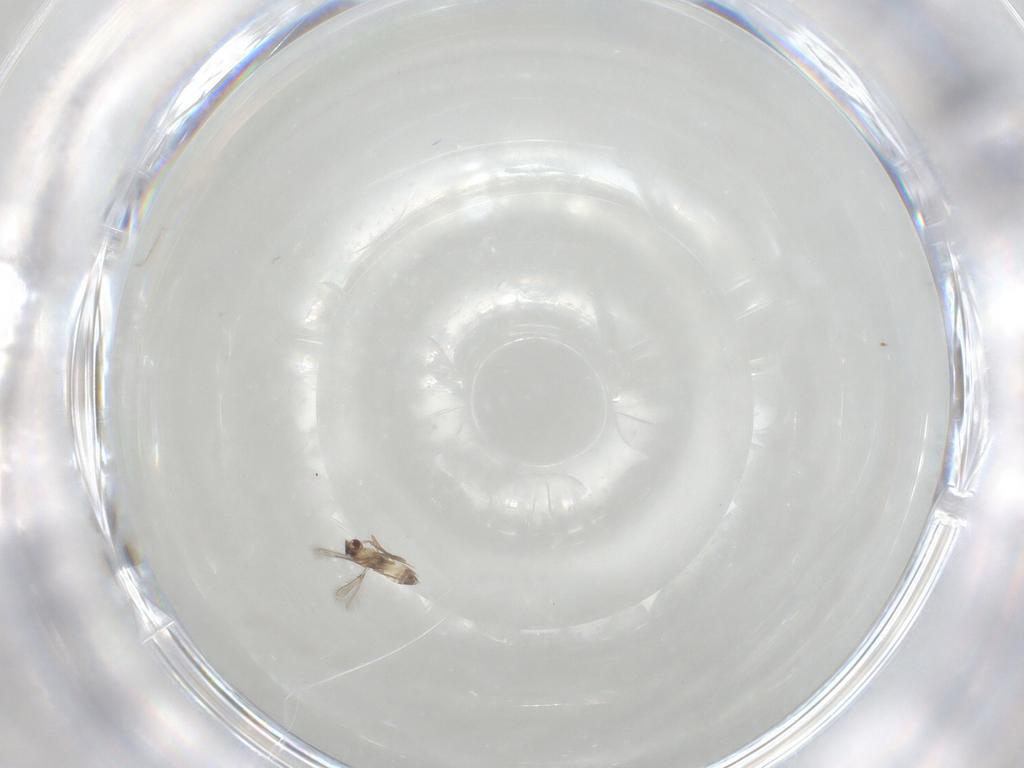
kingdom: Animalia
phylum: Arthropoda
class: Insecta
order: Hymenoptera
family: Mymaridae
